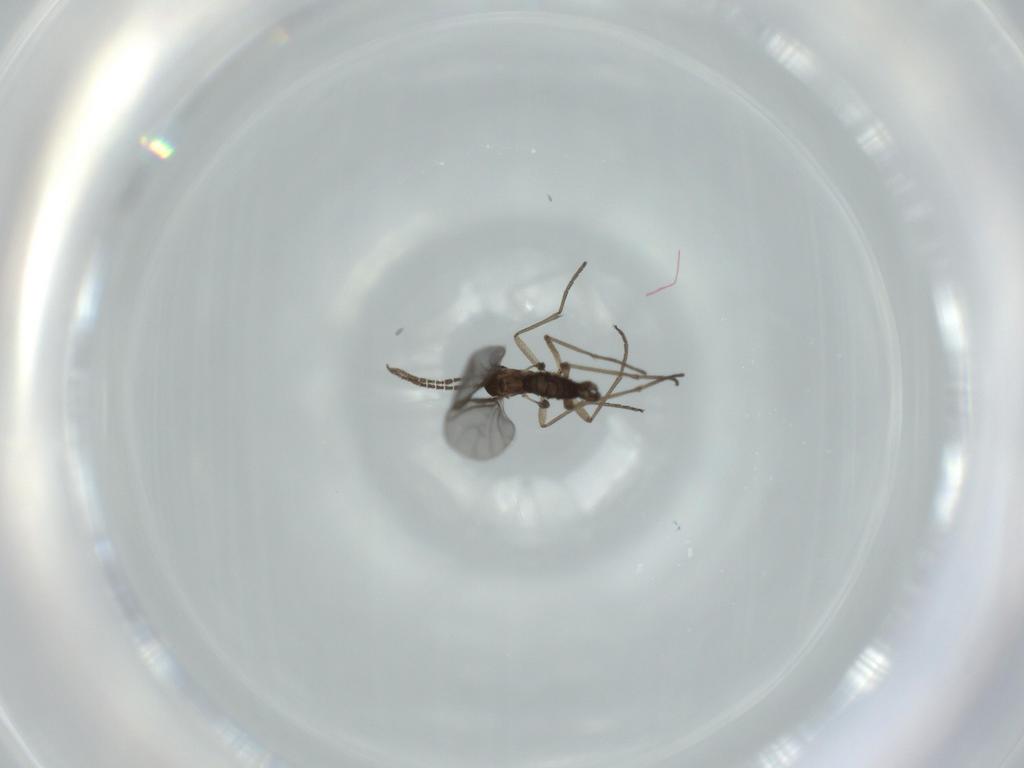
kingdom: Animalia
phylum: Arthropoda
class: Insecta
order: Diptera
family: Sciaridae
